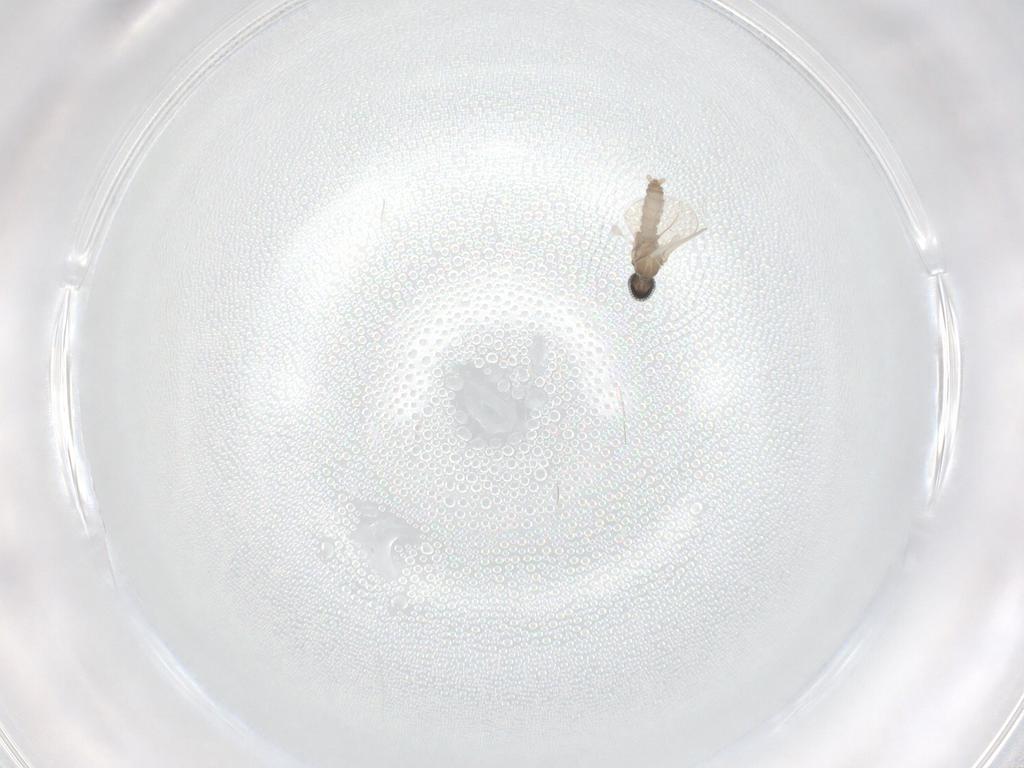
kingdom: Animalia
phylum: Arthropoda
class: Insecta
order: Diptera
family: Cecidomyiidae
